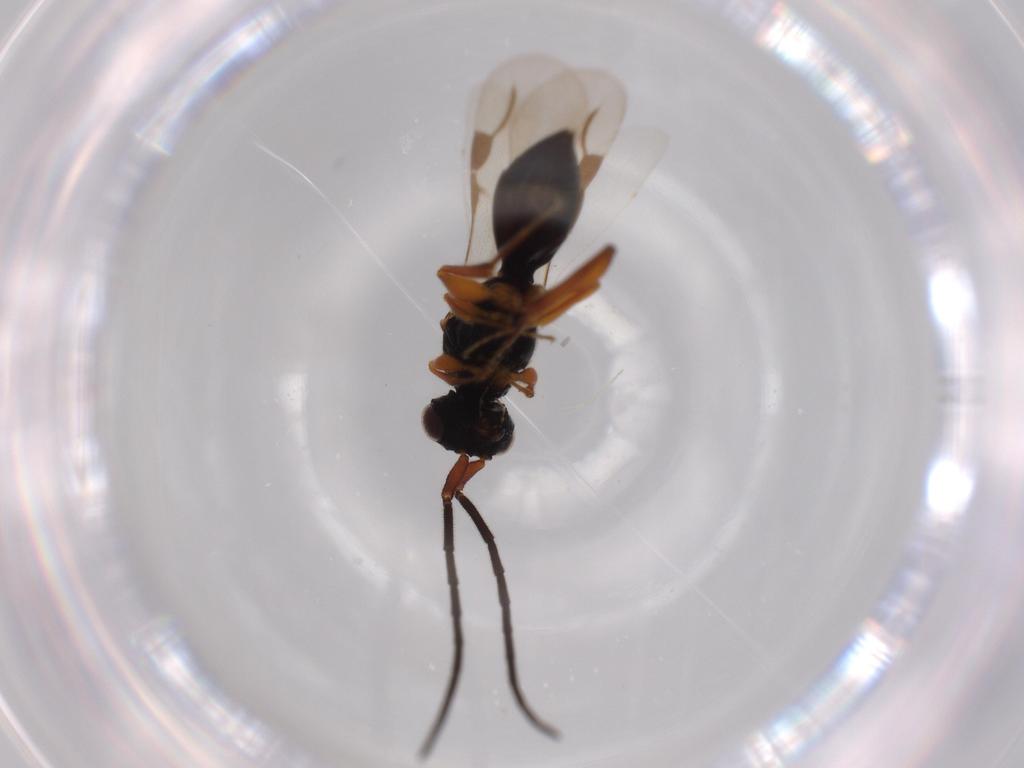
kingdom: Animalia
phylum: Arthropoda
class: Insecta
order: Hymenoptera
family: Megaspilidae
